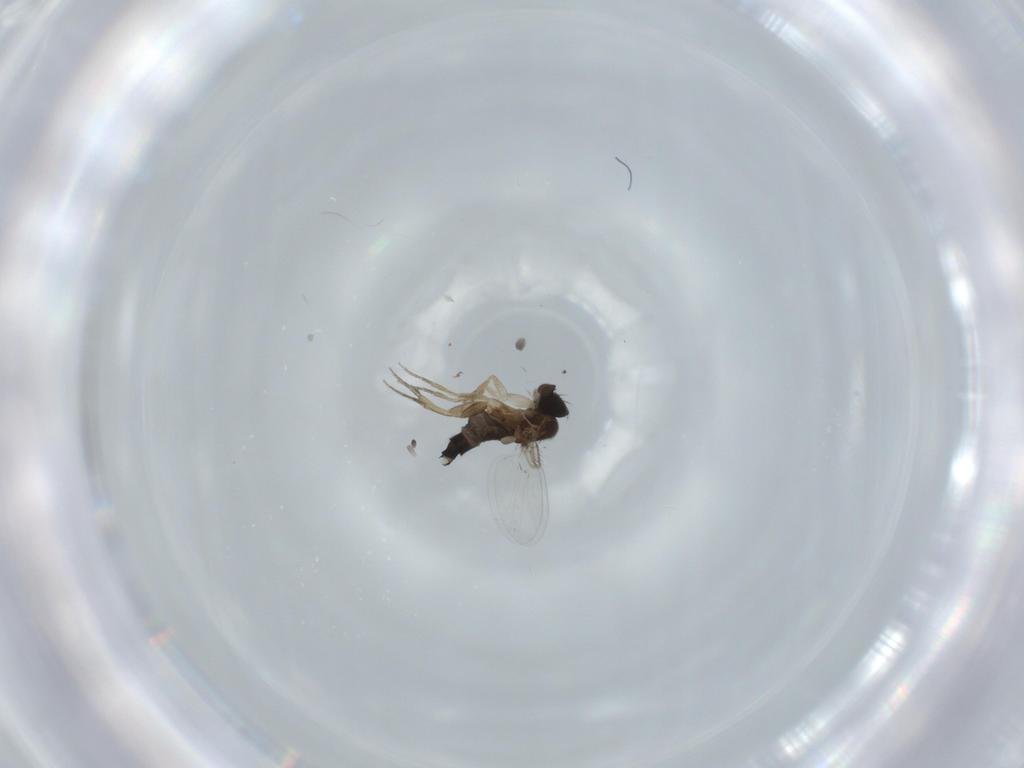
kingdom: Animalia
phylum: Arthropoda
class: Insecta
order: Diptera
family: Phoridae
